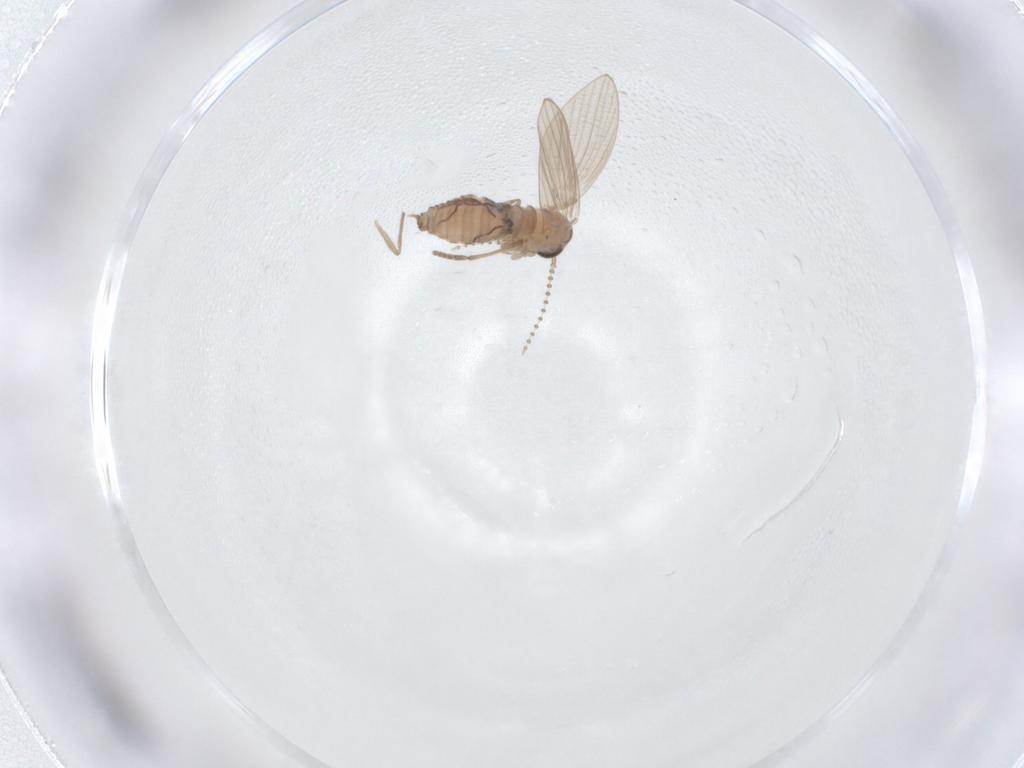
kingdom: Animalia
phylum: Arthropoda
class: Insecta
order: Diptera
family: Psychodidae
